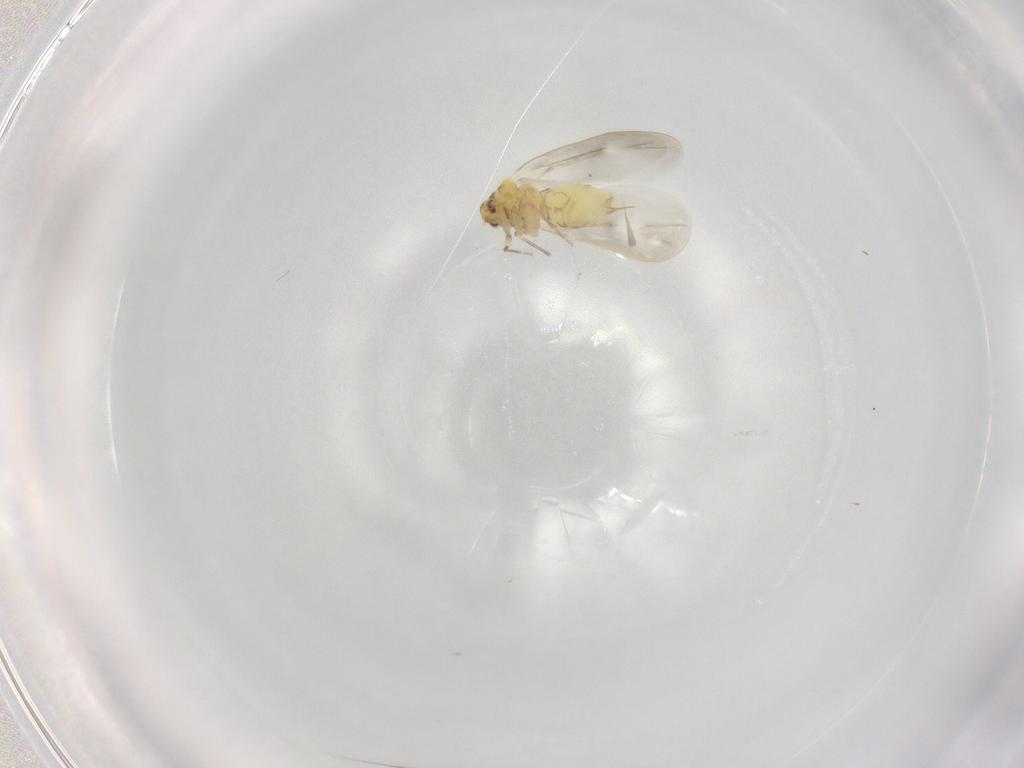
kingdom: Animalia
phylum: Arthropoda
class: Insecta
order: Hemiptera
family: Aleyrodidae
